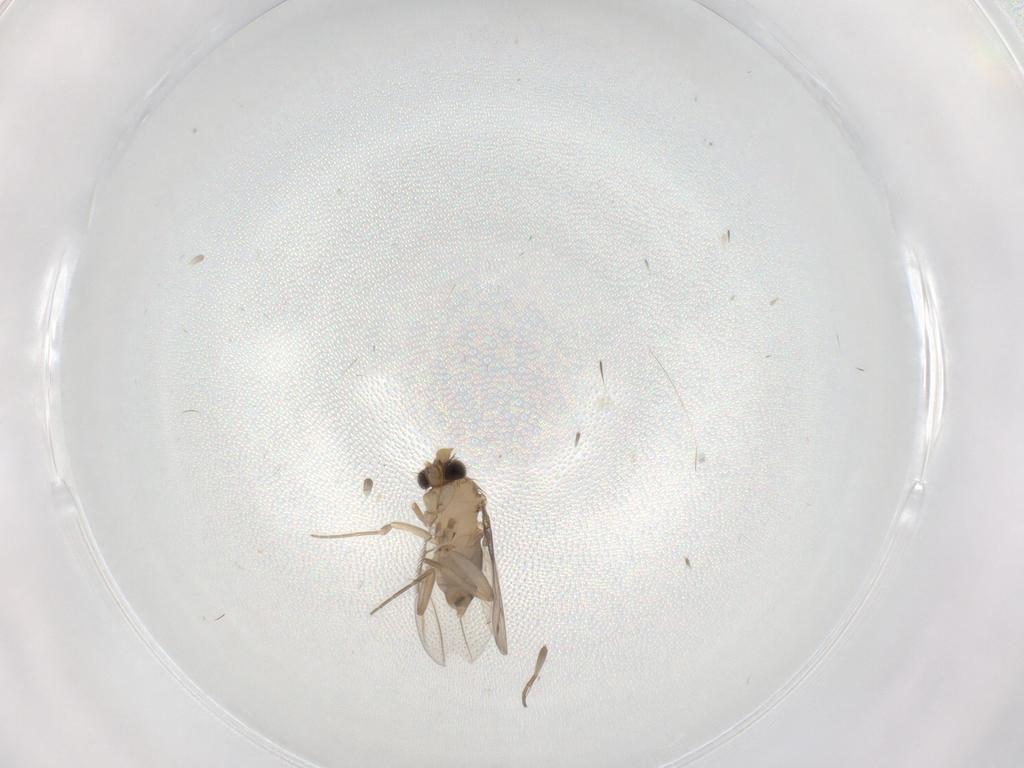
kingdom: Animalia
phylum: Arthropoda
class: Insecta
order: Diptera
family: Phoridae
